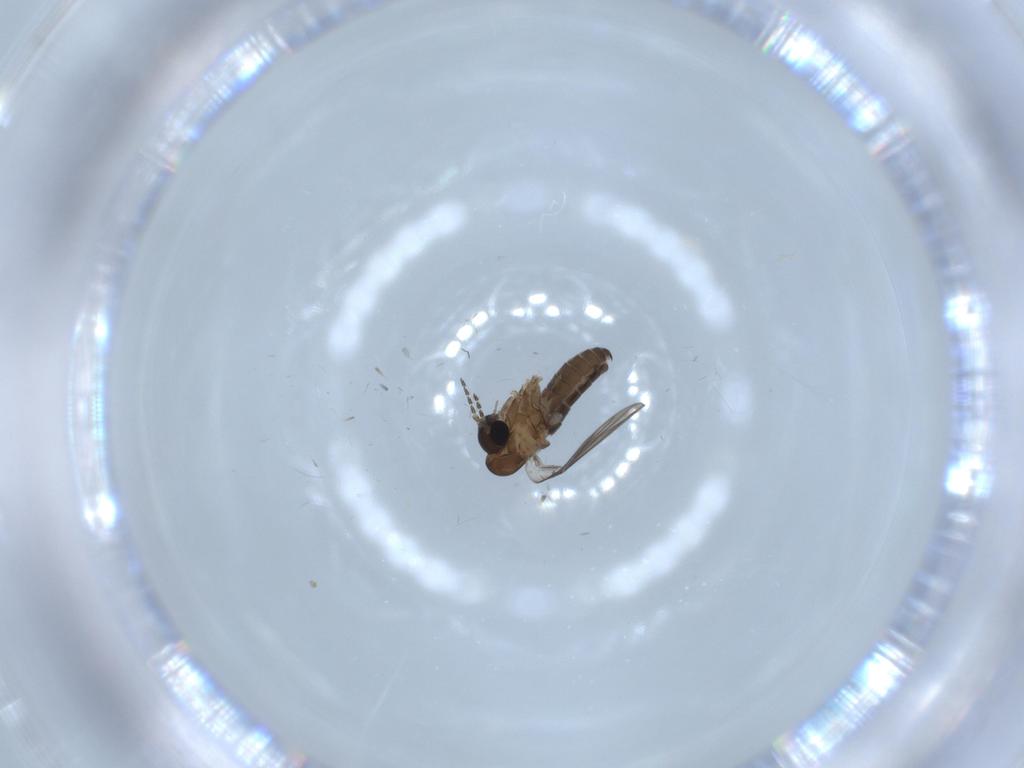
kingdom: Animalia
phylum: Arthropoda
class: Insecta
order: Diptera
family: Psychodidae
